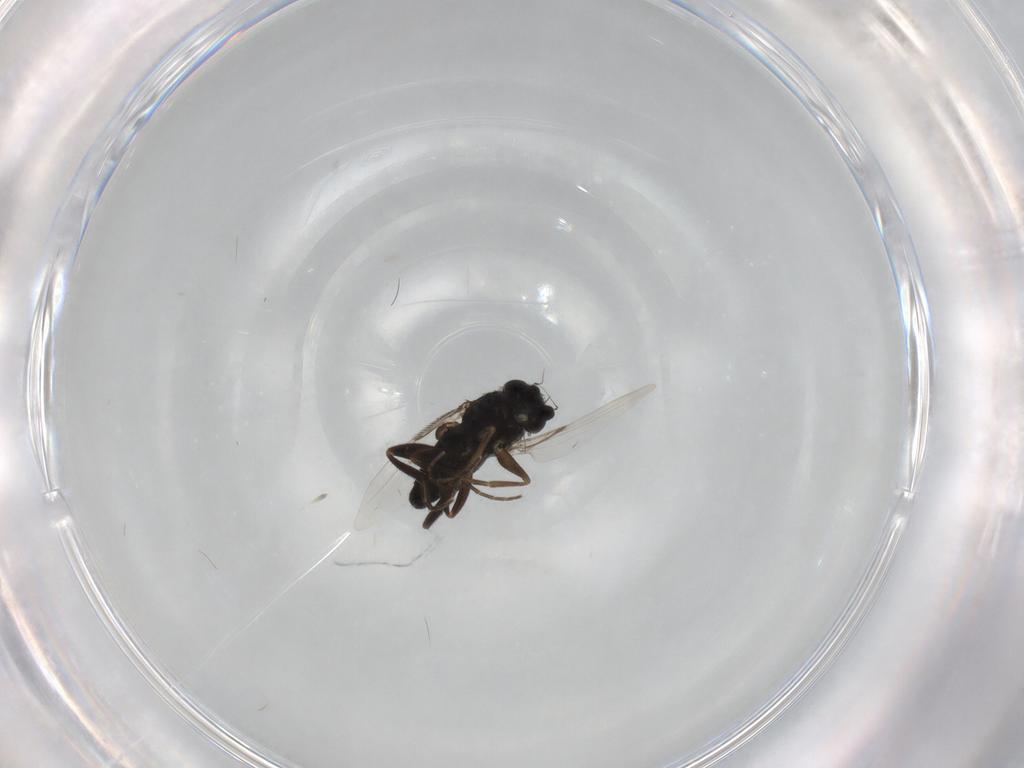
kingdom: Animalia
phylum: Arthropoda
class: Insecta
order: Diptera
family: Phoridae
